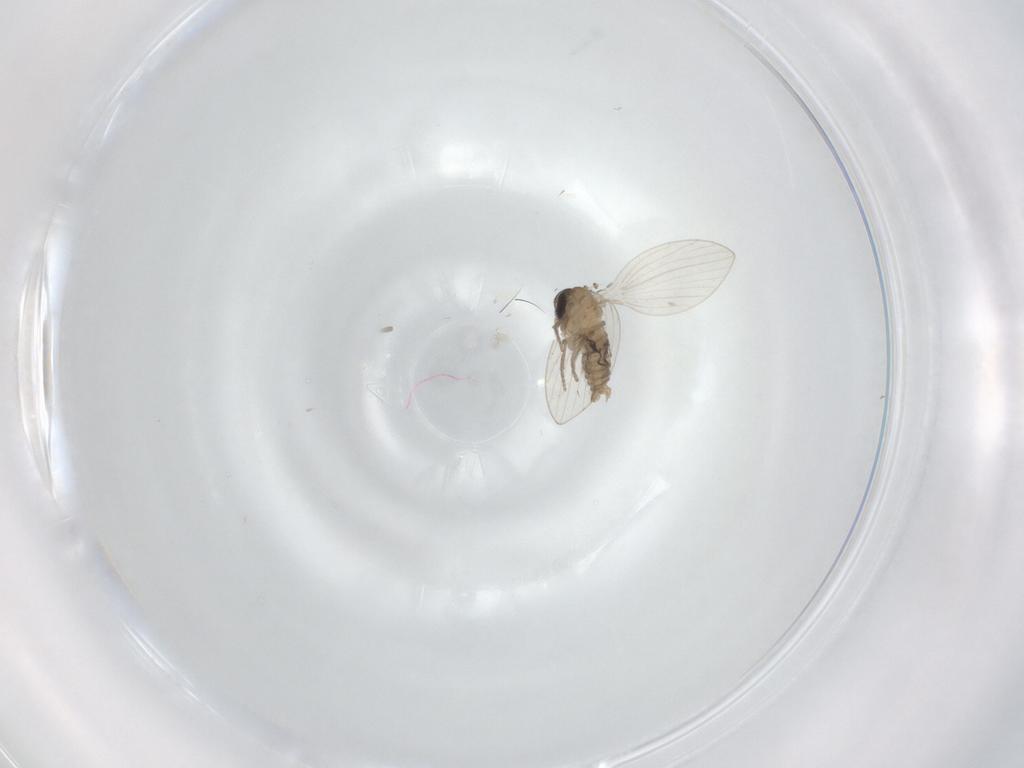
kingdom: Animalia
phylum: Arthropoda
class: Insecta
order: Diptera
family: Psychodidae
